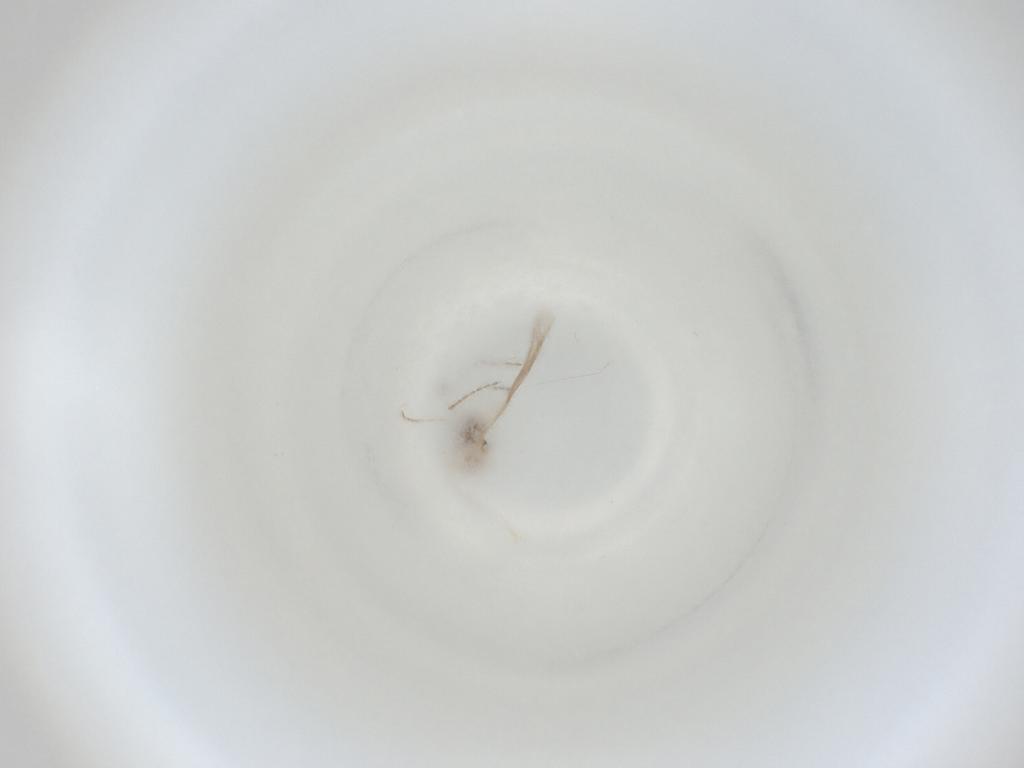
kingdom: Animalia
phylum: Arthropoda
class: Insecta
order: Diptera
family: Cecidomyiidae
